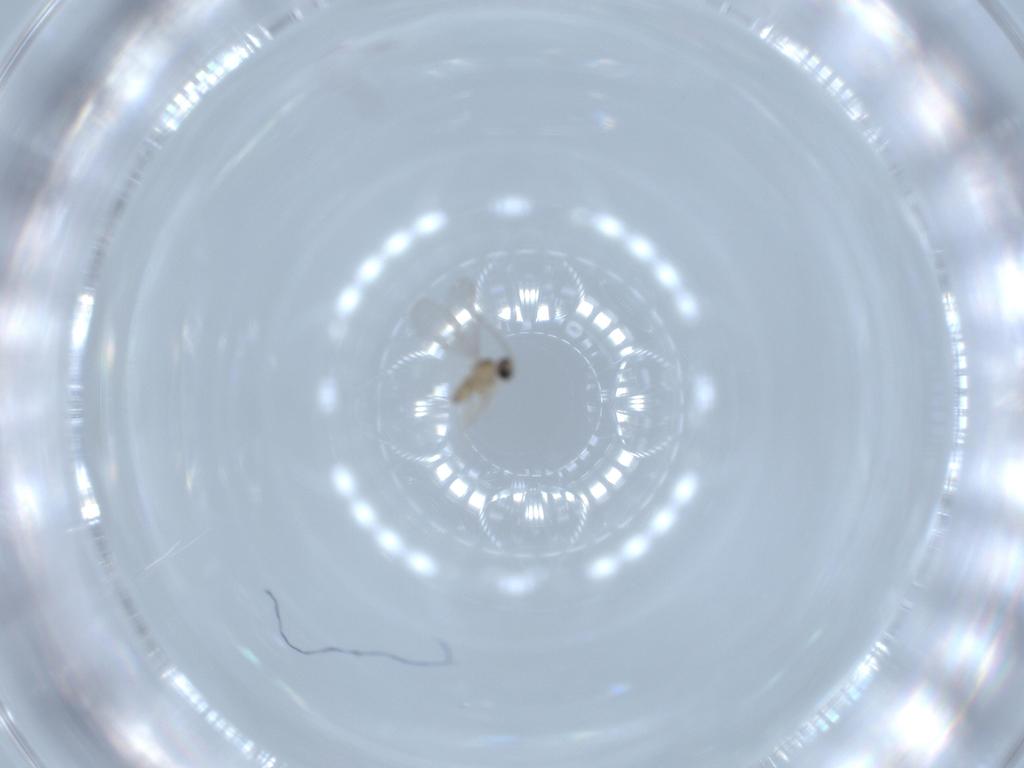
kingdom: Animalia
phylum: Arthropoda
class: Insecta
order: Diptera
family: Cecidomyiidae
